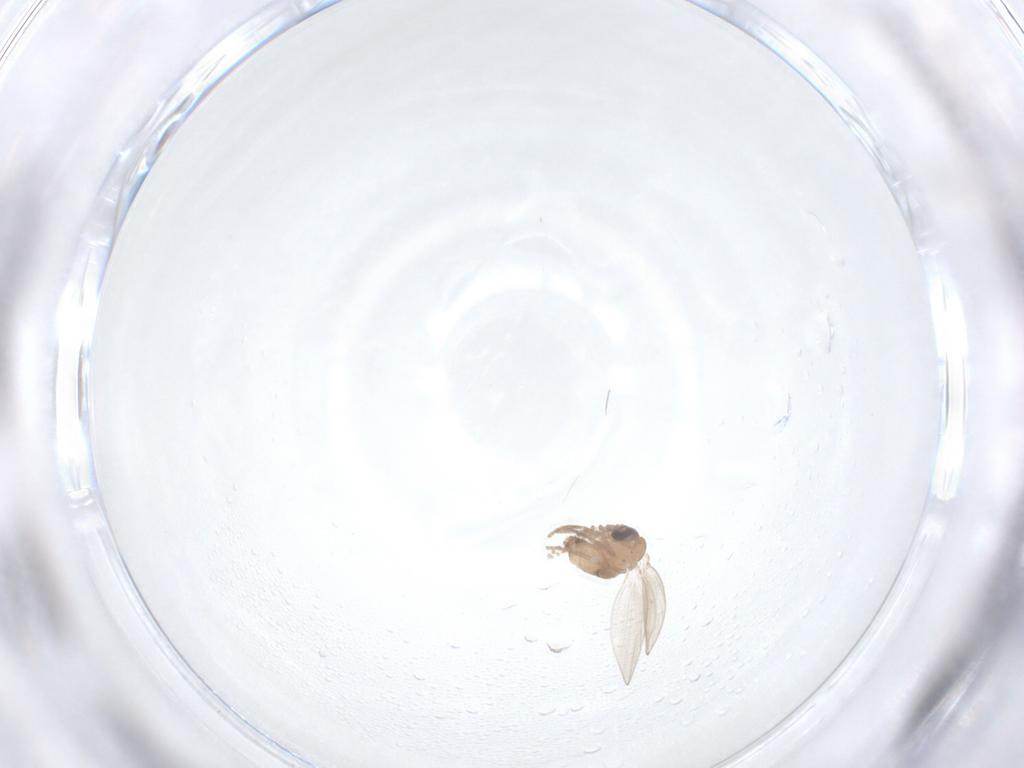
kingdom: Animalia
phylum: Arthropoda
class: Insecta
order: Diptera
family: Psychodidae
